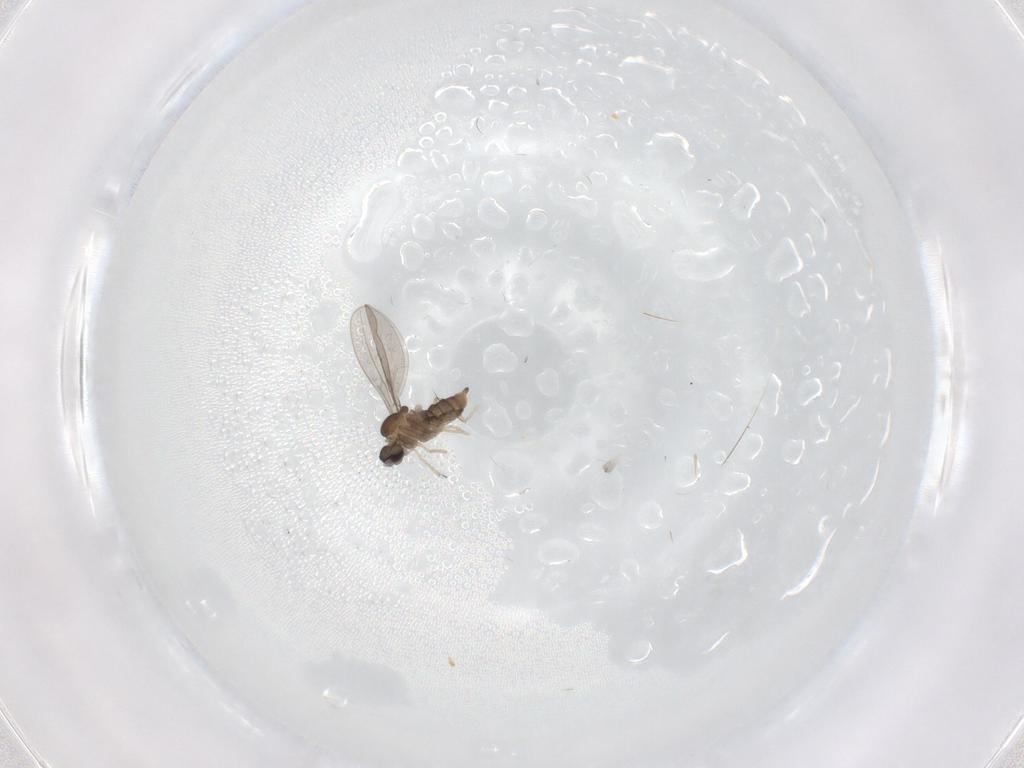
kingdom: Animalia
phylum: Arthropoda
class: Insecta
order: Diptera
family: Cecidomyiidae
